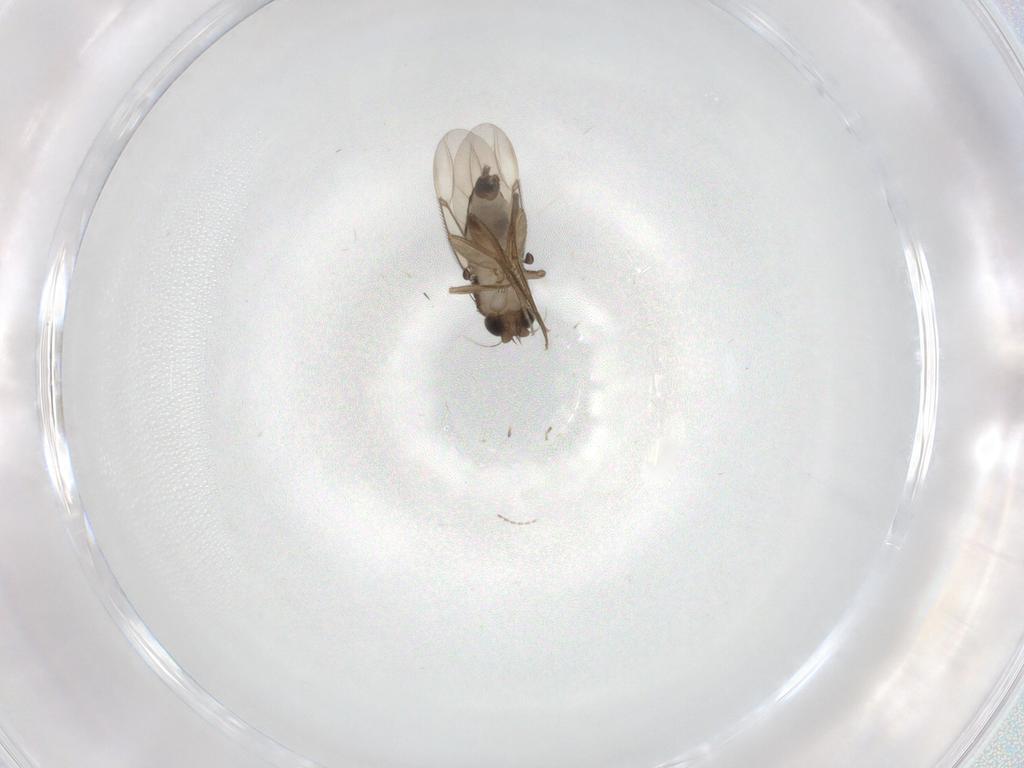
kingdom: Animalia
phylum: Arthropoda
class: Insecta
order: Diptera
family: Phoridae
